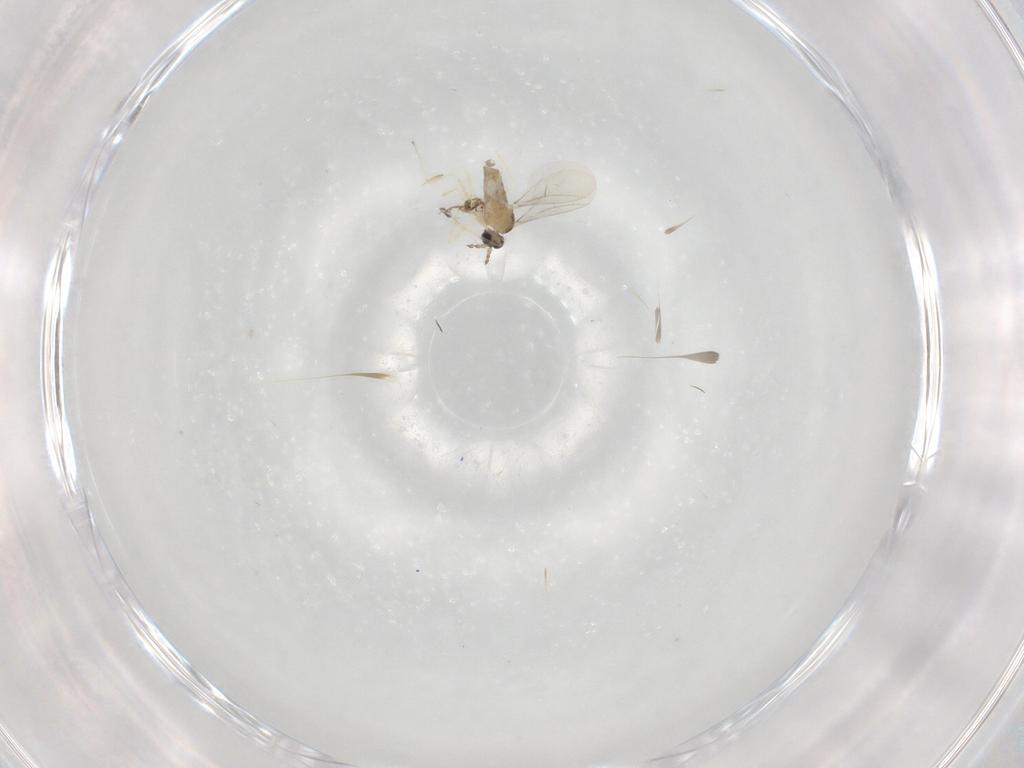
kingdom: Animalia
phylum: Arthropoda
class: Insecta
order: Diptera
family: Cecidomyiidae
